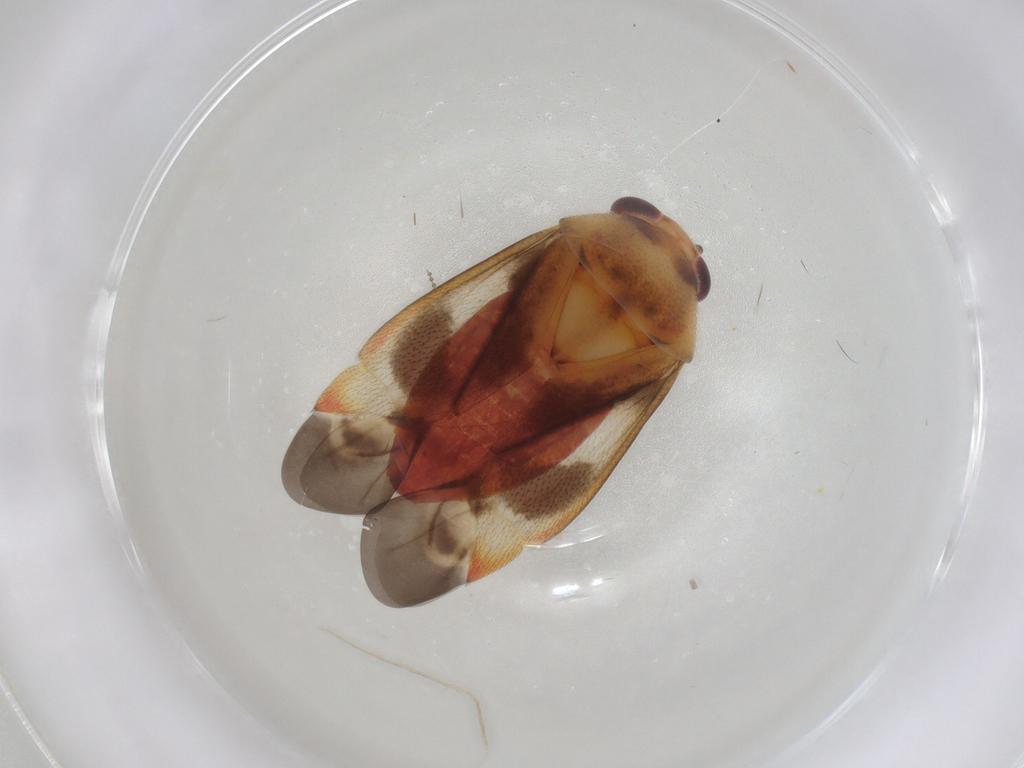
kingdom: Animalia
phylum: Arthropoda
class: Insecta
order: Hemiptera
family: Miridae
